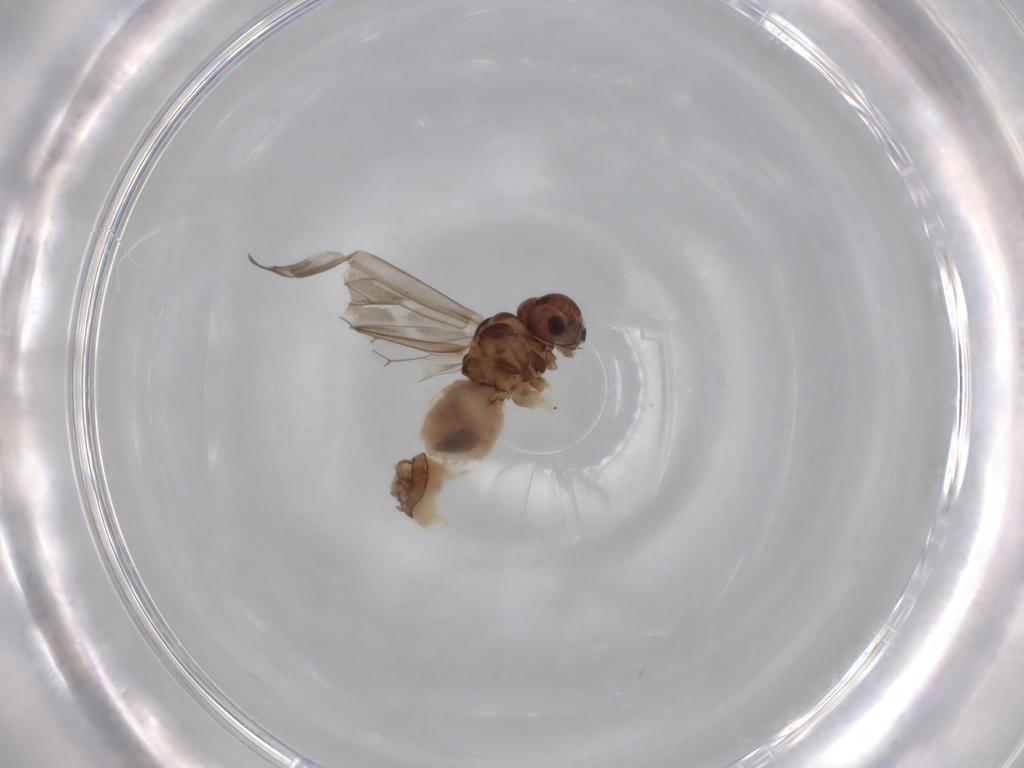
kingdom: Animalia
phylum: Arthropoda
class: Insecta
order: Psocodea
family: Peripsocidae
